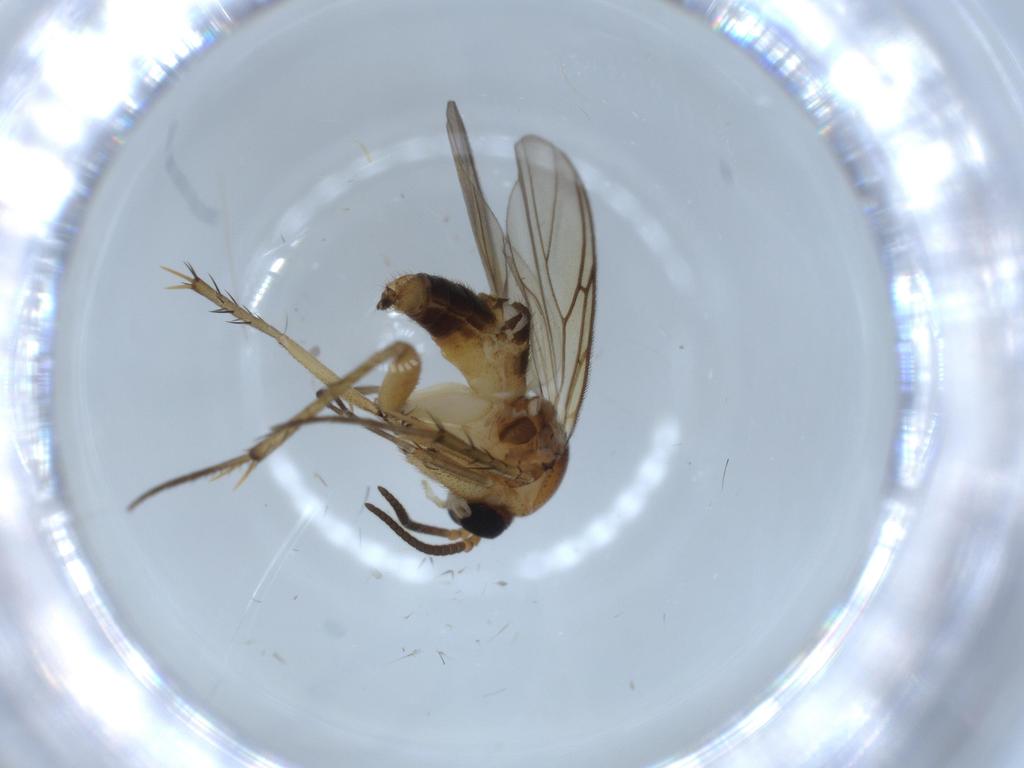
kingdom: Animalia
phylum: Arthropoda
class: Insecta
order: Diptera
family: Mycetophilidae
